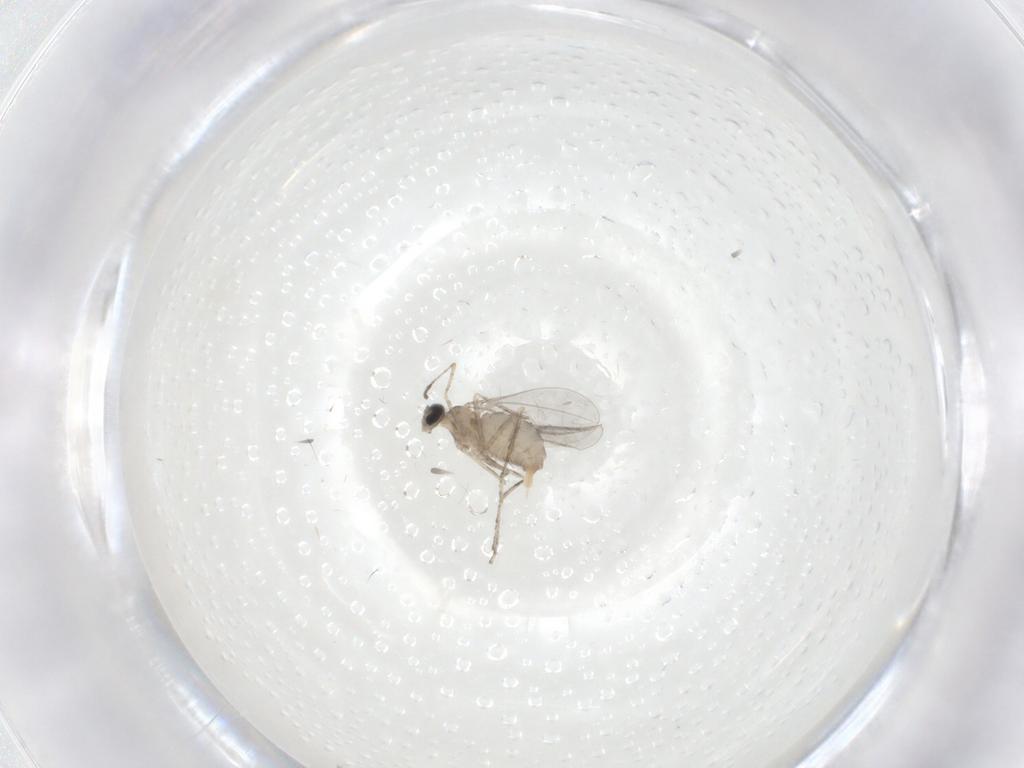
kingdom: Animalia
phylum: Arthropoda
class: Insecta
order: Diptera
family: Cecidomyiidae
